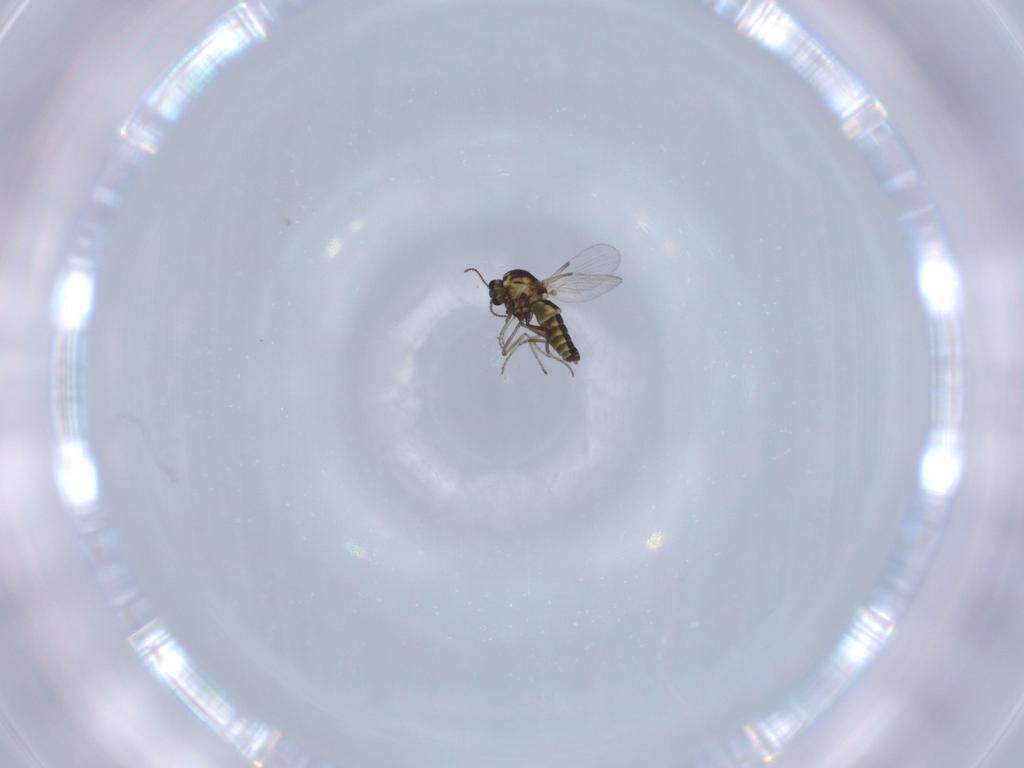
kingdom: Animalia
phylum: Arthropoda
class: Insecta
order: Diptera
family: Ceratopogonidae
